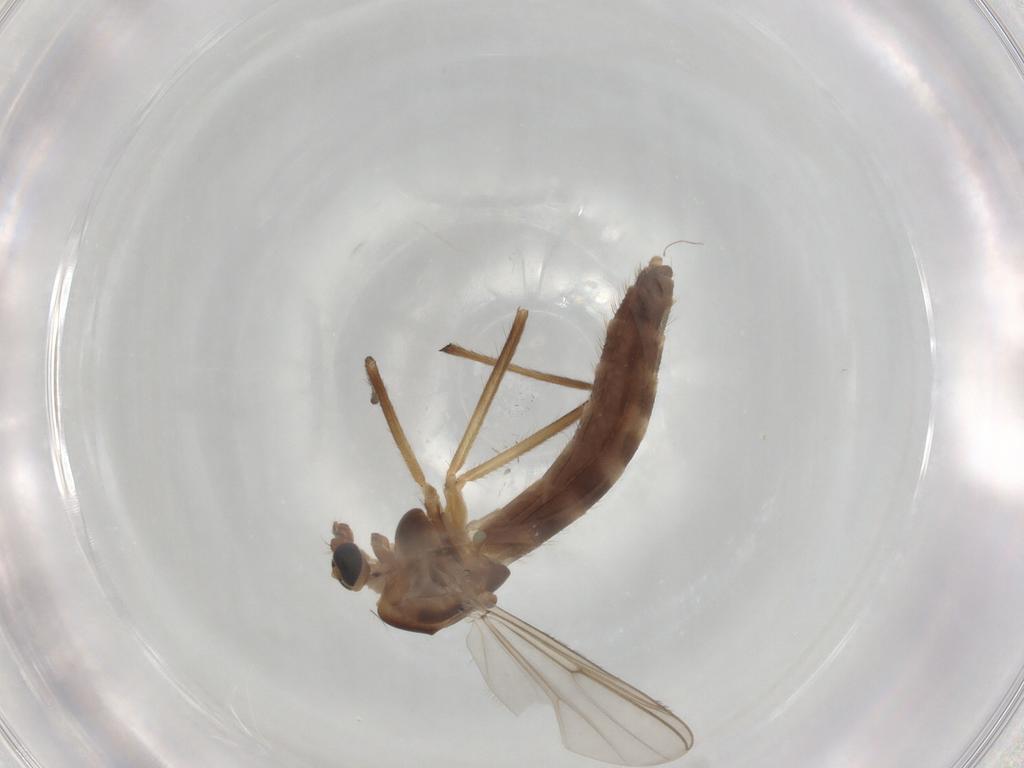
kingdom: Animalia
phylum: Arthropoda
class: Insecta
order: Diptera
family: Chironomidae
